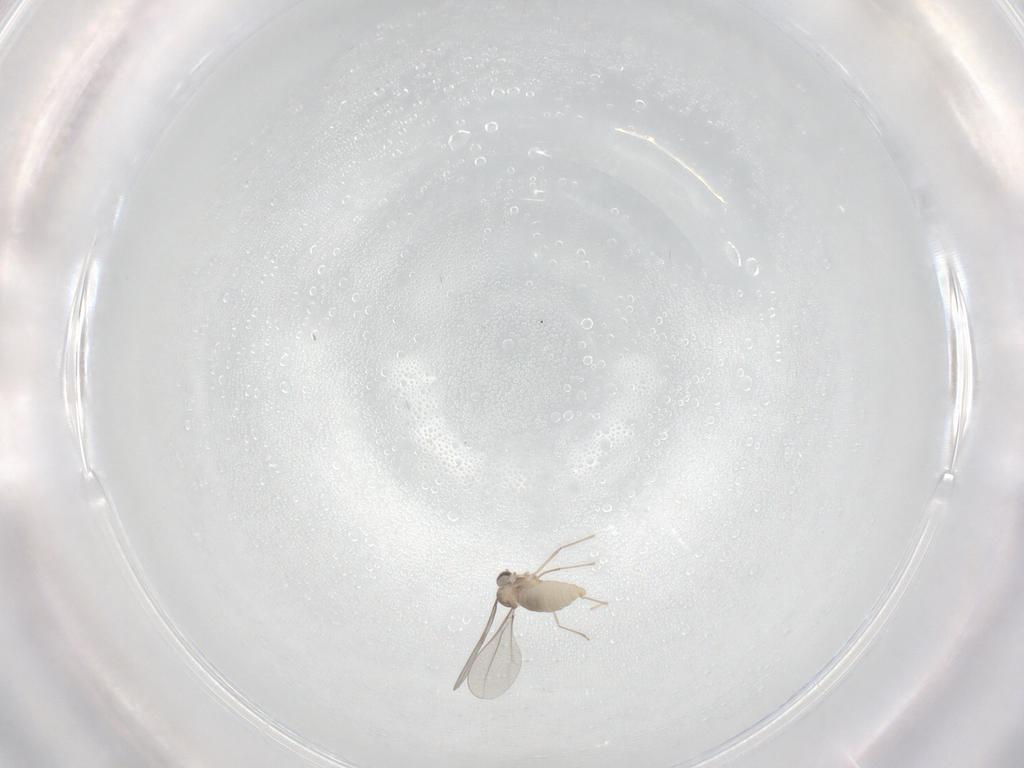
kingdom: Animalia
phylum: Arthropoda
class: Insecta
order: Diptera
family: Cecidomyiidae
